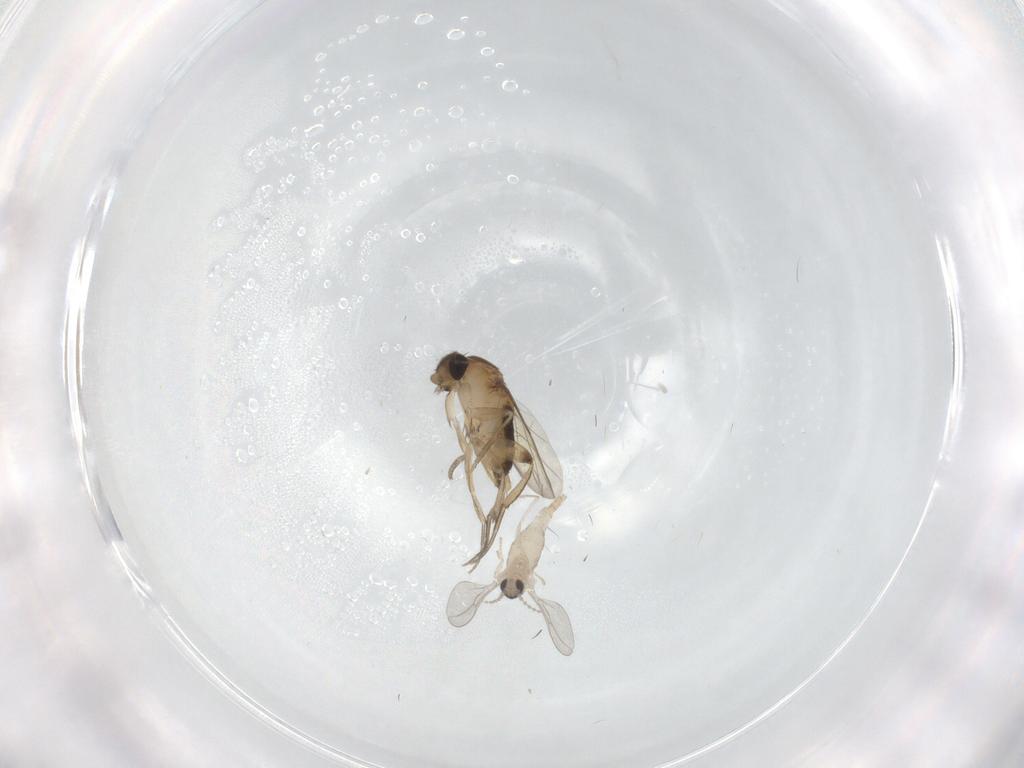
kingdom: Animalia
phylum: Arthropoda
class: Insecta
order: Diptera
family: Cecidomyiidae
